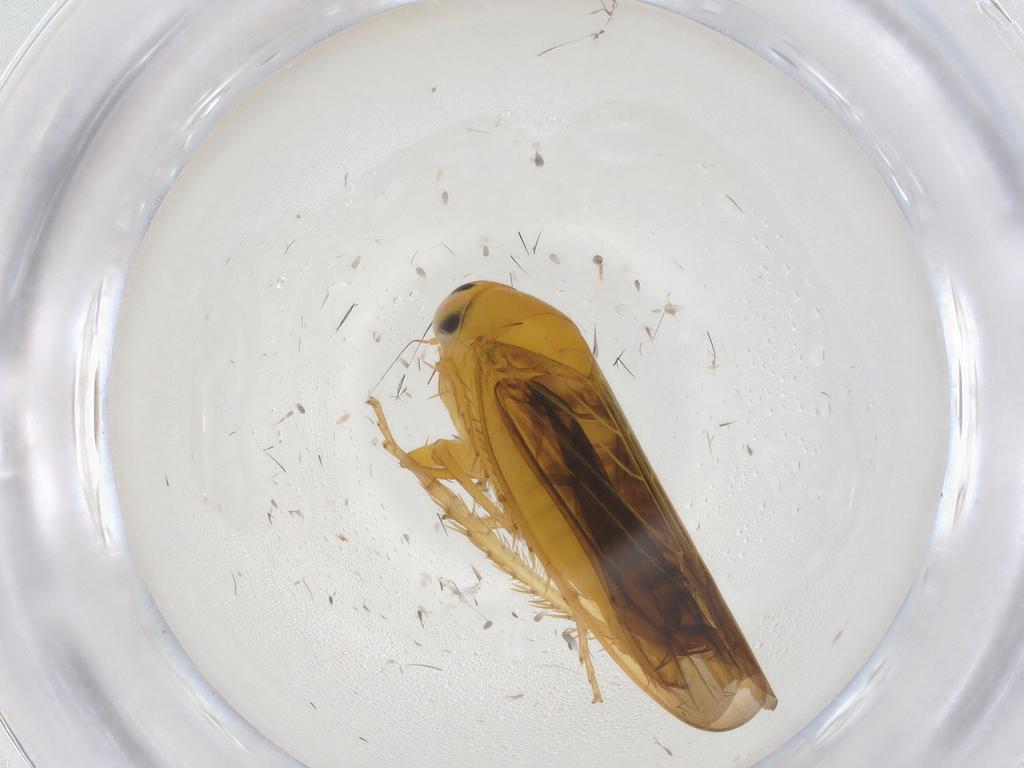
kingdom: Animalia
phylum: Arthropoda
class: Insecta
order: Hemiptera
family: Cicadellidae
